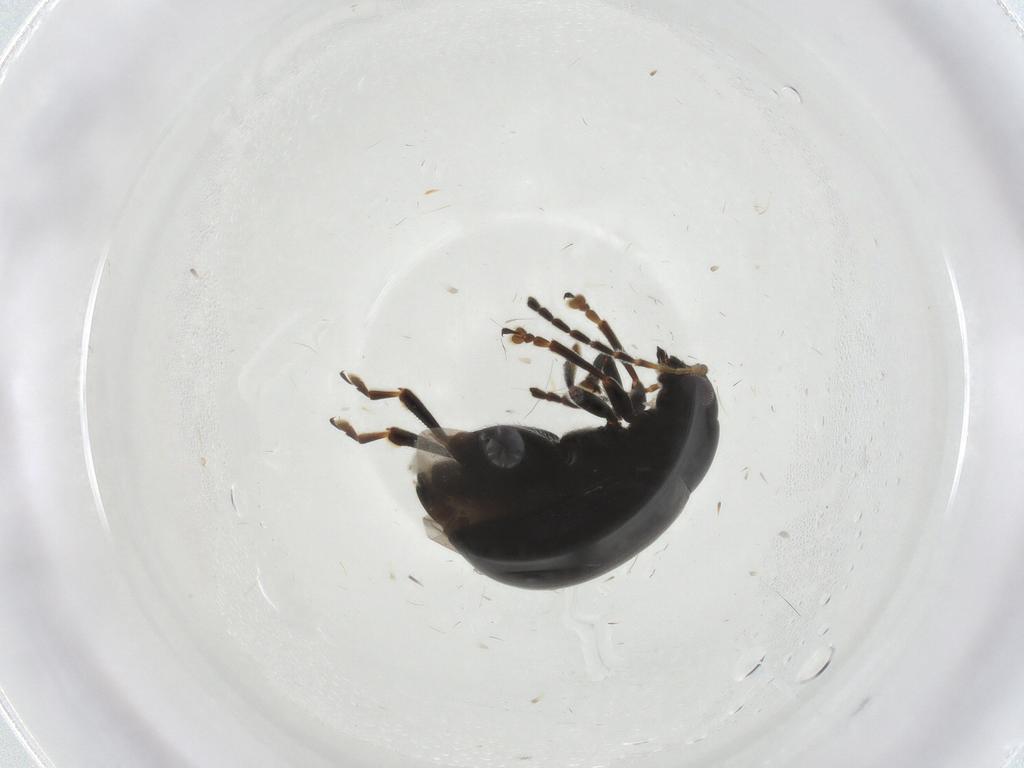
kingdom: Animalia
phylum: Arthropoda
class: Insecta
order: Coleoptera
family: Chrysomelidae
